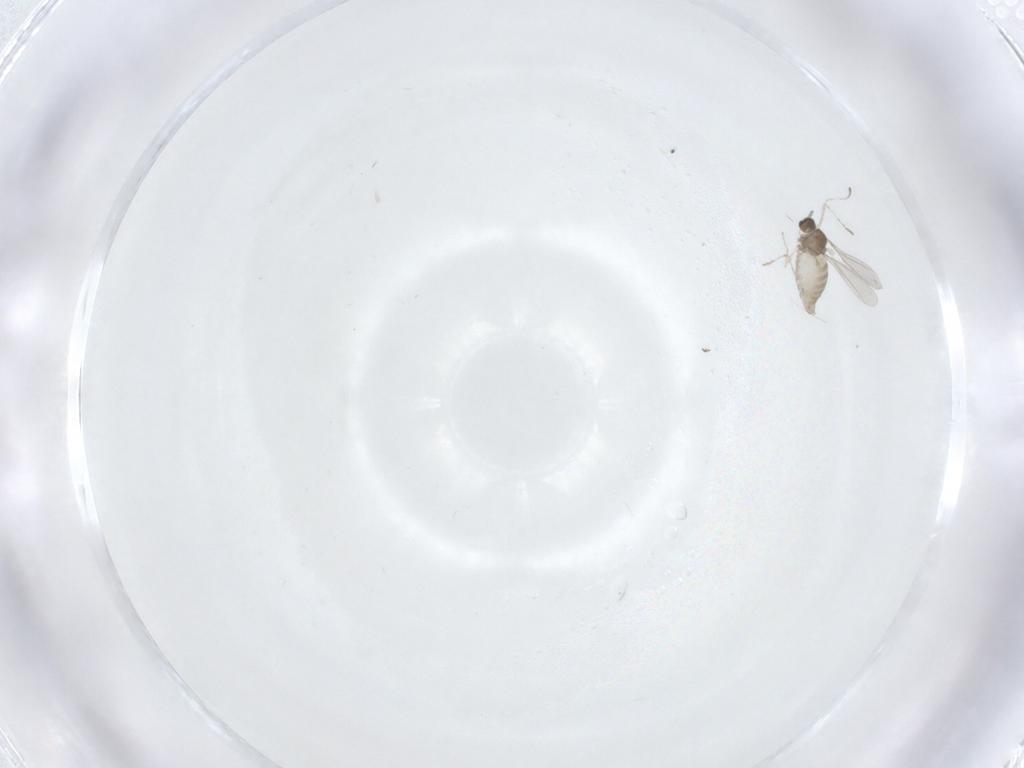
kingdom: Animalia
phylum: Arthropoda
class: Insecta
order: Diptera
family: Cecidomyiidae
